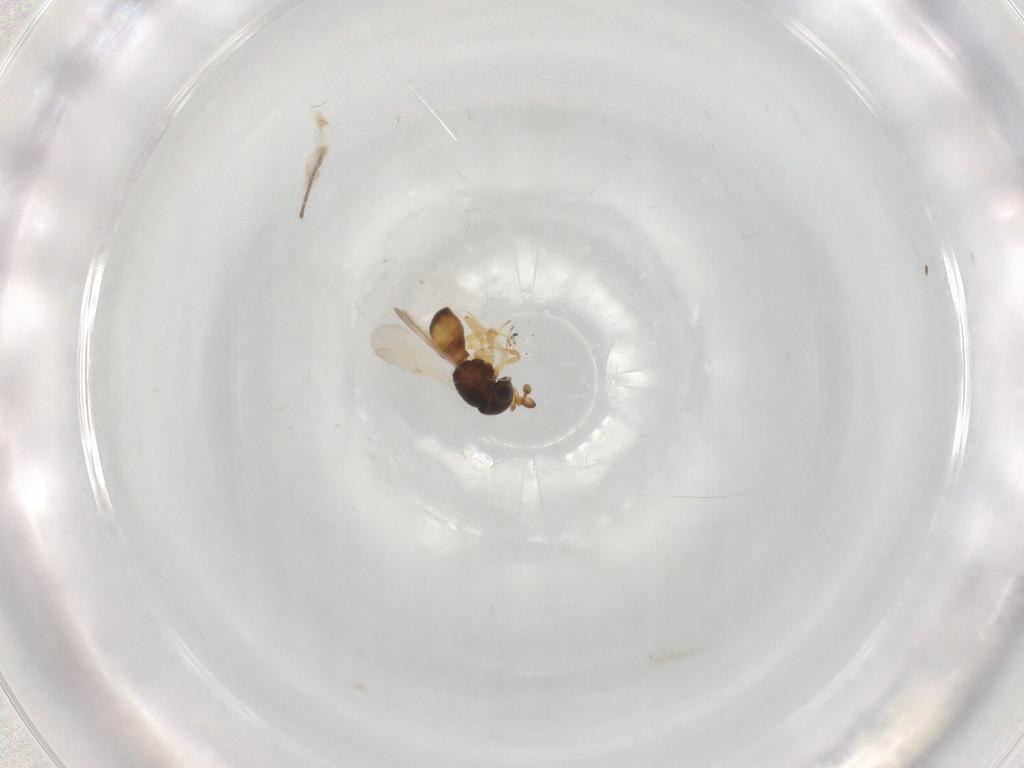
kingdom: Animalia
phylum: Arthropoda
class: Insecta
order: Hymenoptera
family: Scelionidae
